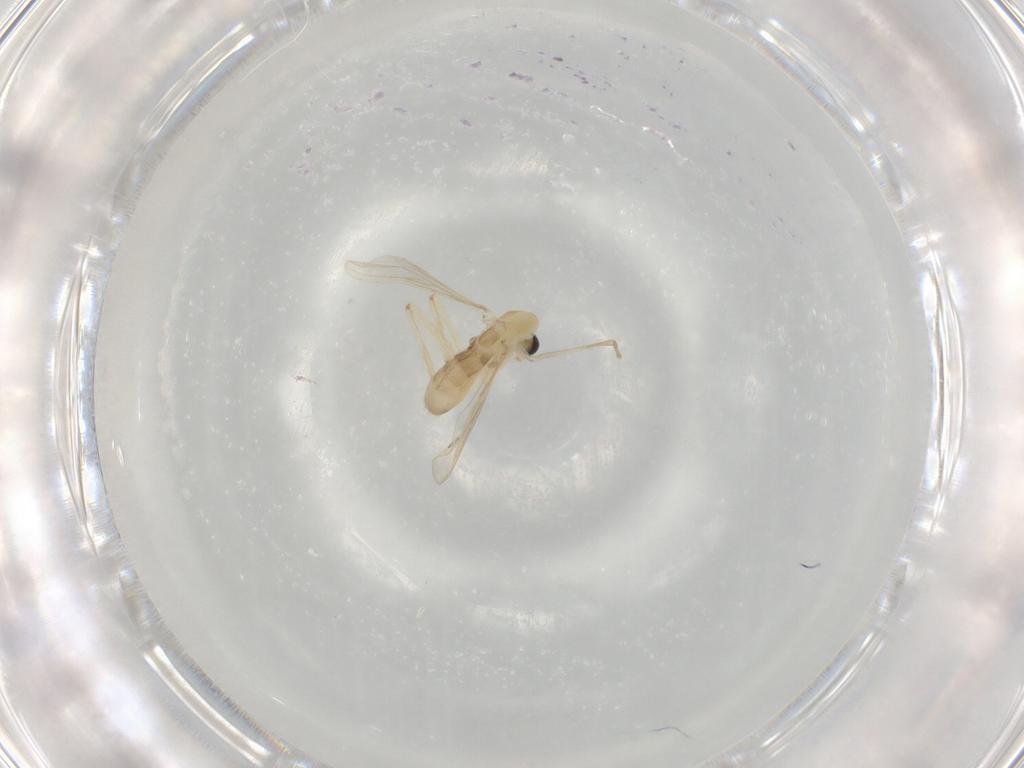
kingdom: Animalia
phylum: Arthropoda
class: Insecta
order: Diptera
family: Chironomidae
